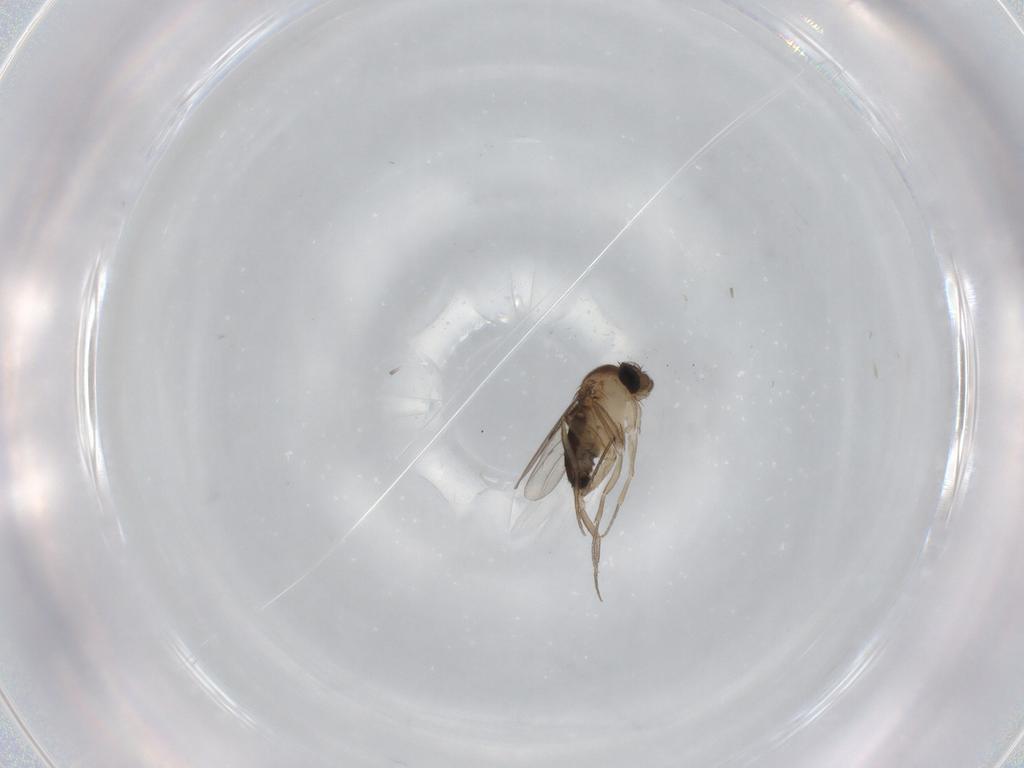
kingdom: Animalia
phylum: Arthropoda
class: Insecta
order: Diptera
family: Phoridae
